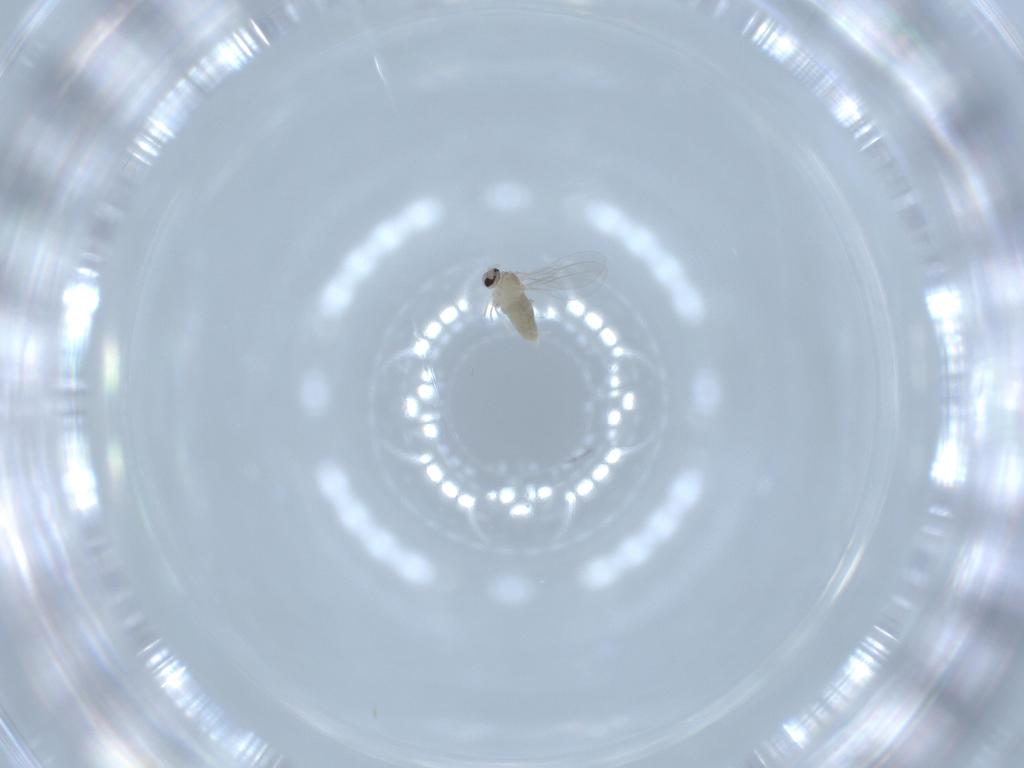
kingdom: Animalia
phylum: Arthropoda
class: Insecta
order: Diptera
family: Cecidomyiidae
